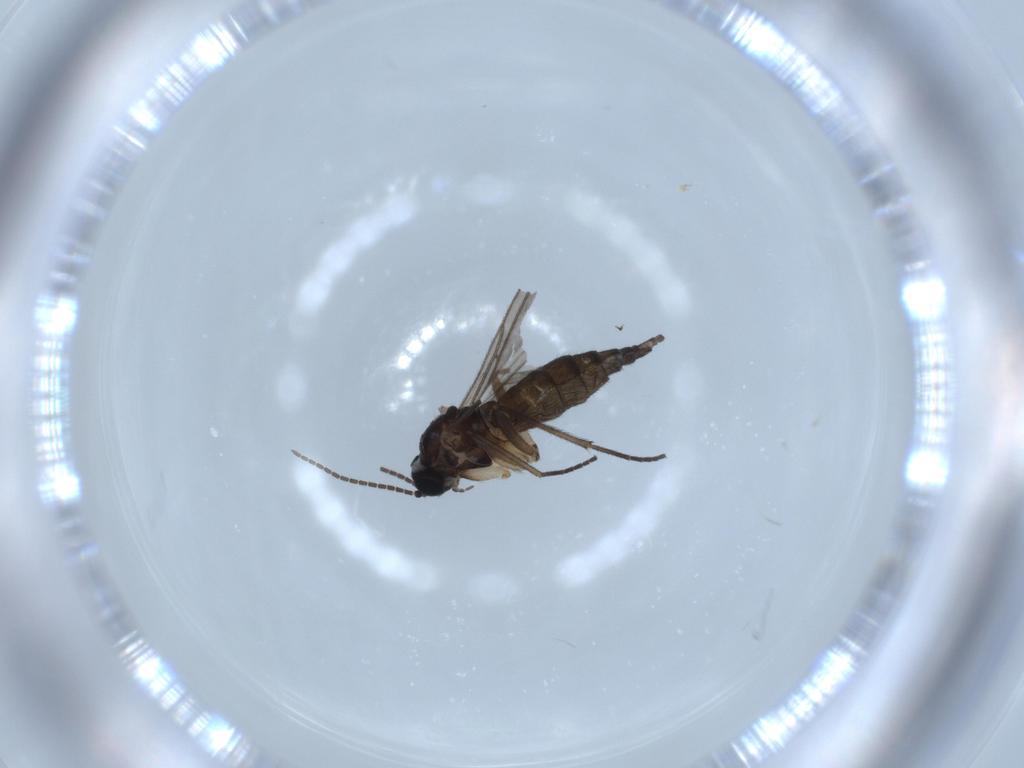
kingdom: Animalia
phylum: Arthropoda
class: Insecta
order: Diptera
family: Sciaridae
